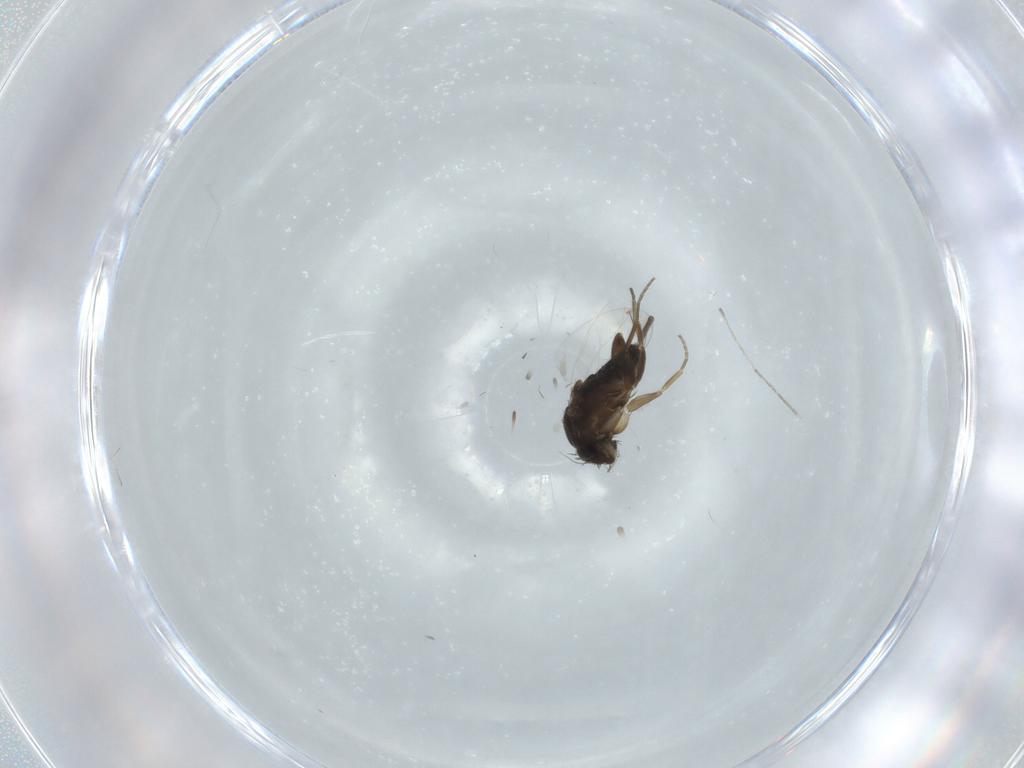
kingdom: Animalia
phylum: Arthropoda
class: Insecta
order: Diptera
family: Phoridae
